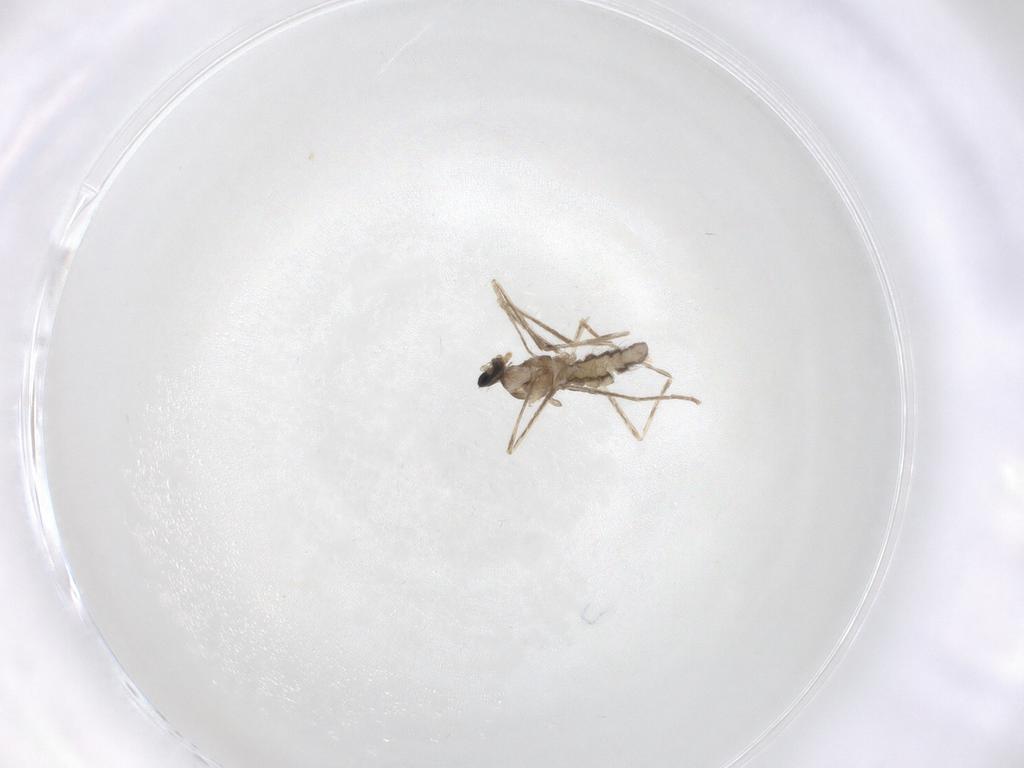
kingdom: Animalia
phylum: Arthropoda
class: Insecta
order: Diptera
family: Cecidomyiidae
